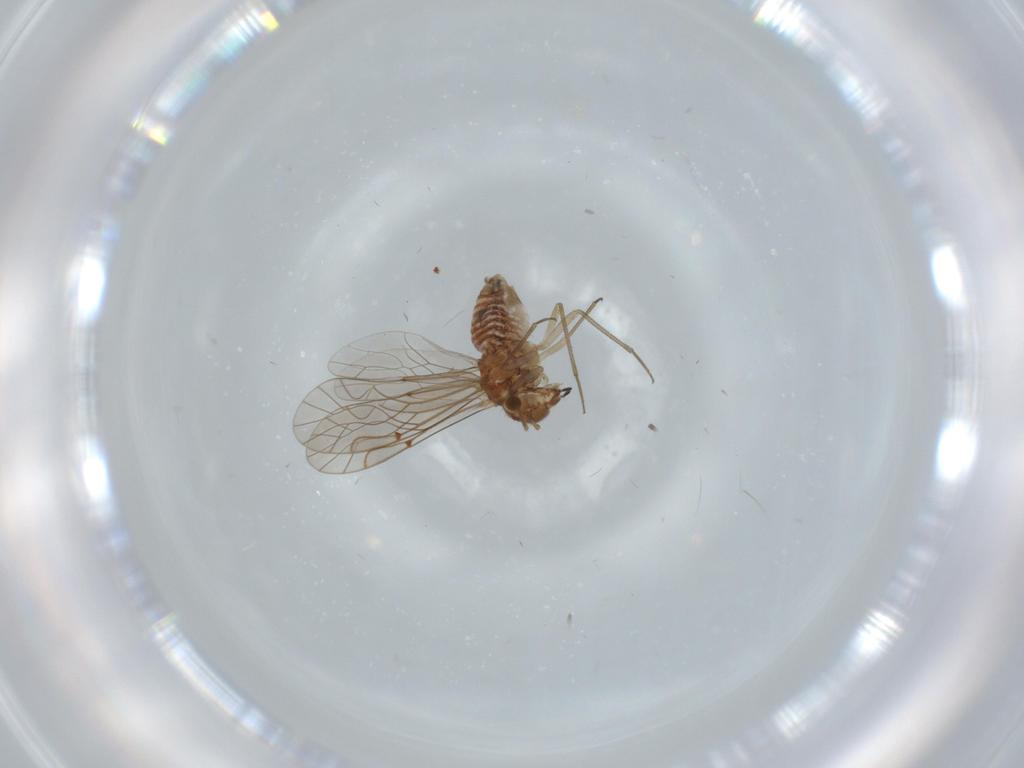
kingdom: Animalia
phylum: Arthropoda
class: Insecta
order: Psocodea
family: Lachesillidae
